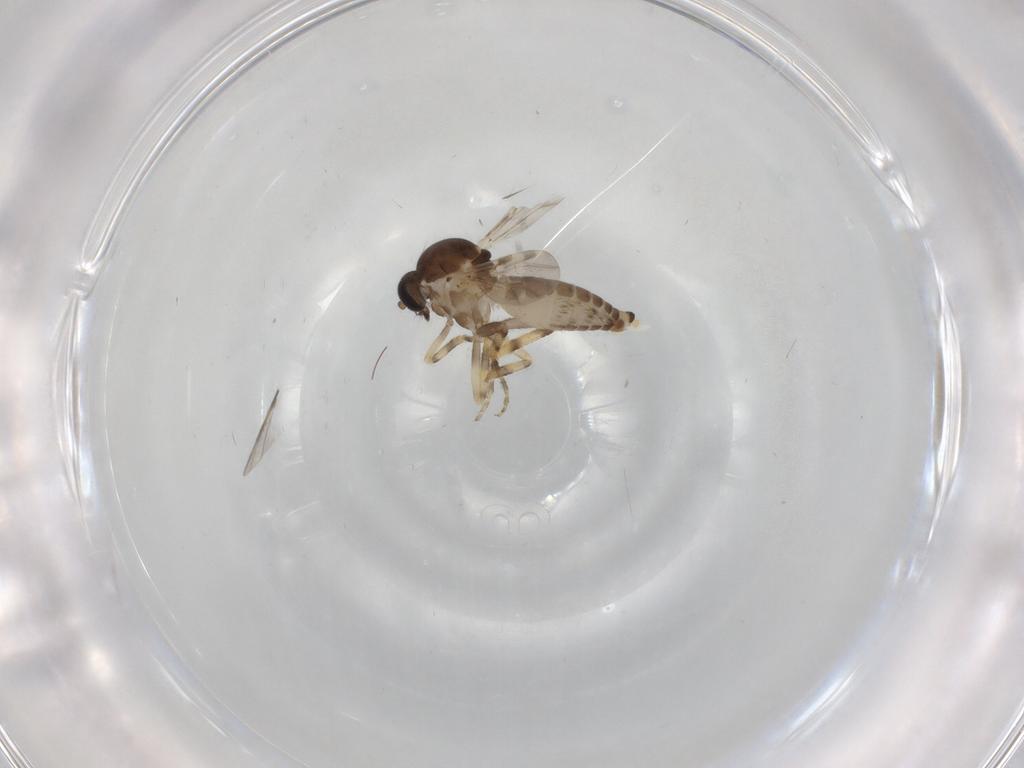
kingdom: Animalia
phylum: Arthropoda
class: Insecta
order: Diptera
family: Ceratopogonidae
